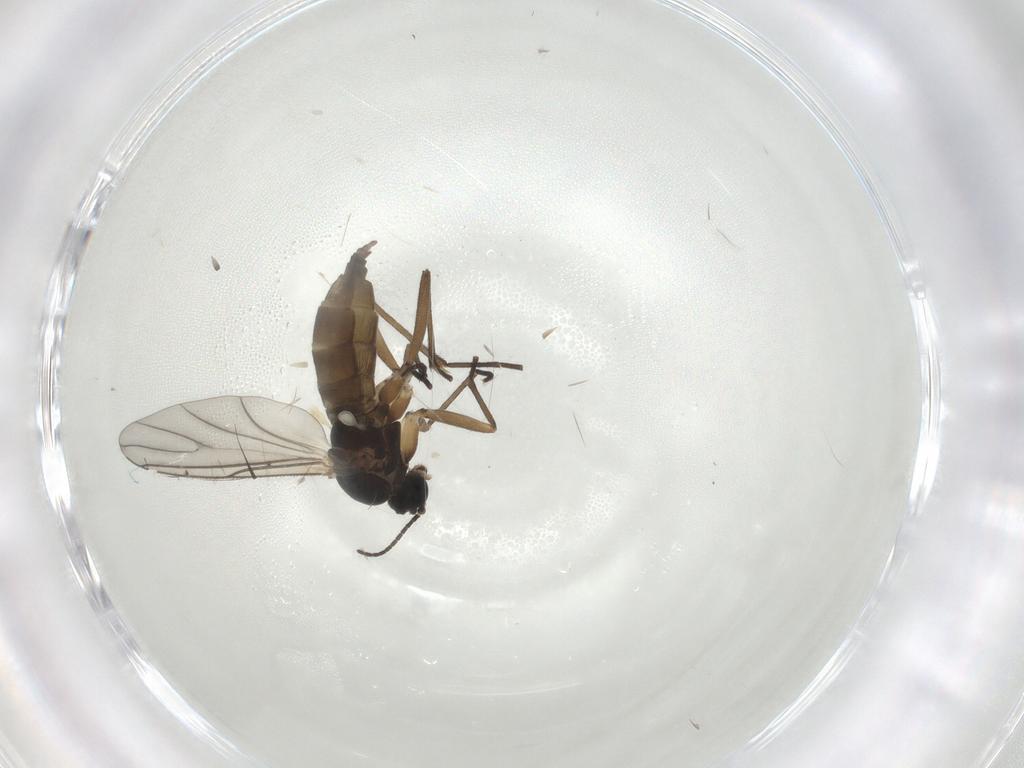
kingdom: Animalia
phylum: Arthropoda
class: Insecta
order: Diptera
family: Sciaridae
